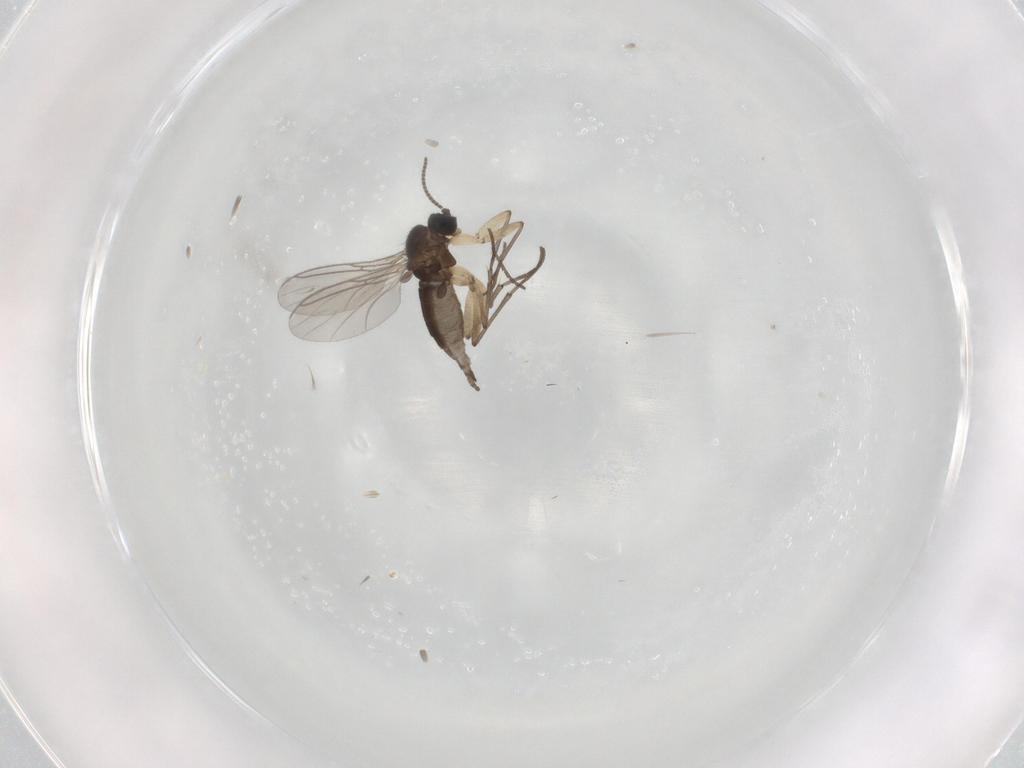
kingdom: Animalia
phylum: Arthropoda
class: Insecta
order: Diptera
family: Sciaridae
